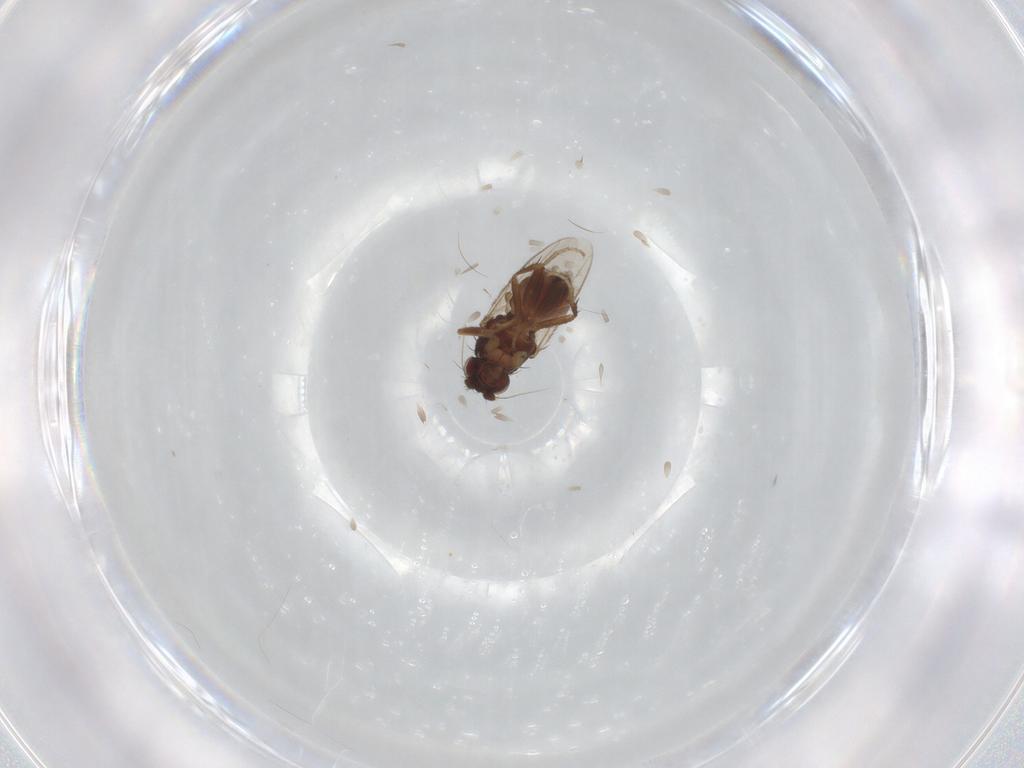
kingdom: Animalia
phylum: Arthropoda
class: Insecta
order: Diptera
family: Sphaeroceridae
